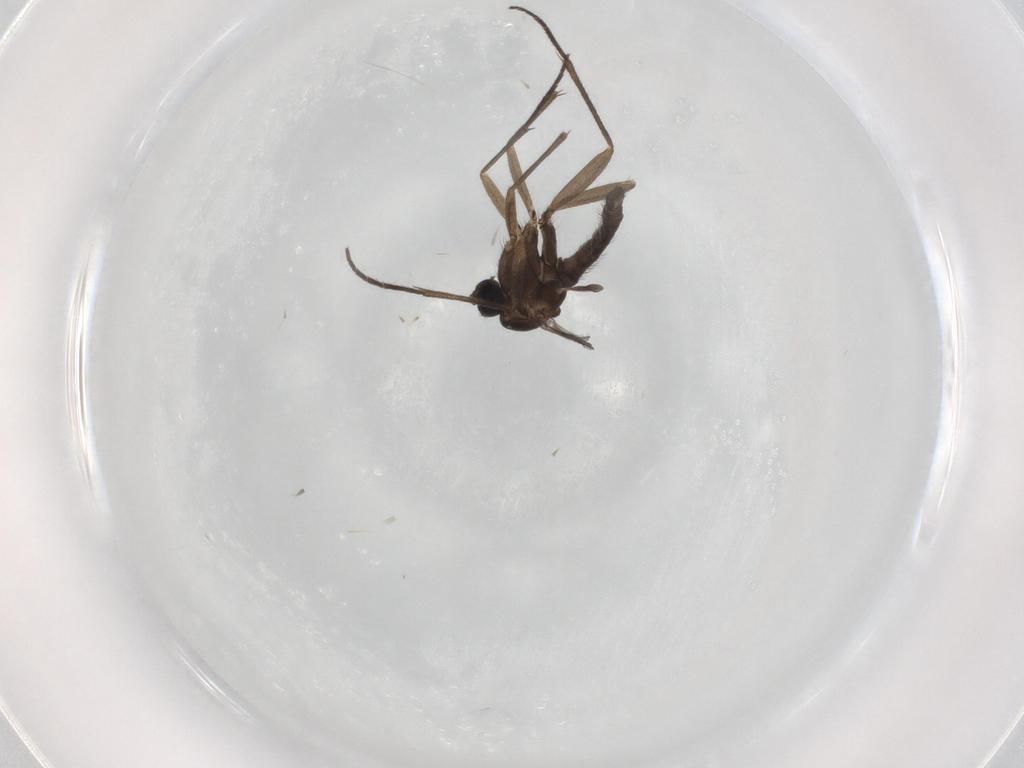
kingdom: Animalia
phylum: Arthropoda
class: Insecta
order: Diptera
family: Sciaridae
